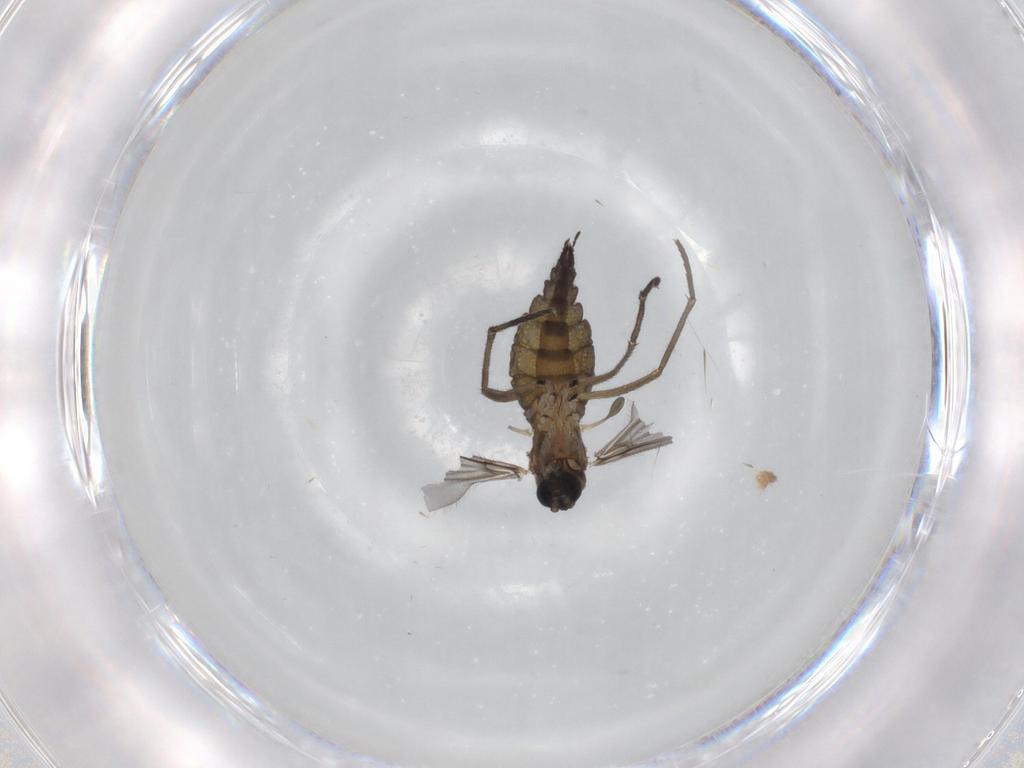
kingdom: Animalia
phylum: Arthropoda
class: Insecta
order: Diptera
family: Sciaridae
